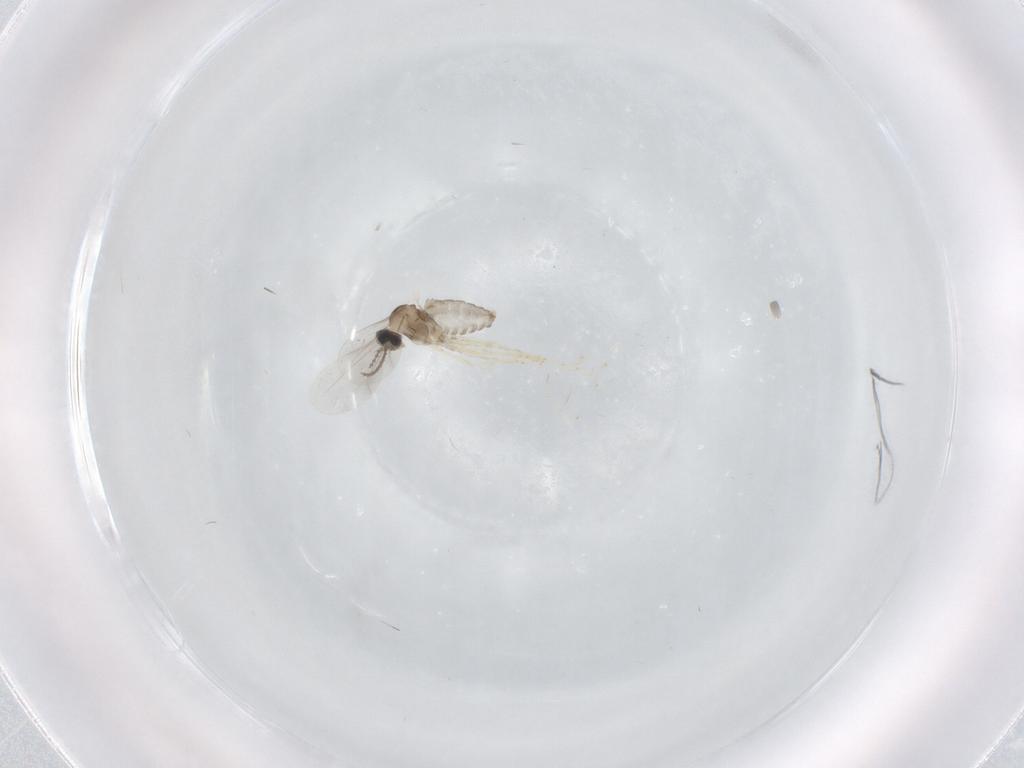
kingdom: Animalia
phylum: Arthropoda
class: Insecta
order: Diptera
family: Cecidomyiidae
